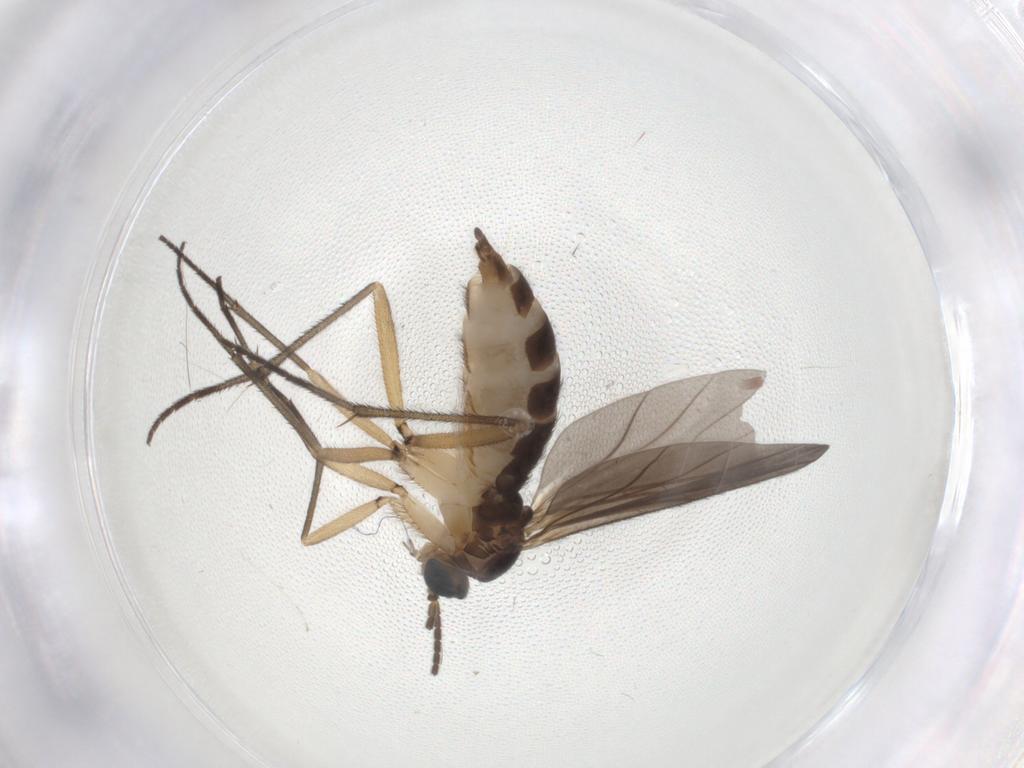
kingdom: Animalia
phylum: Arthropoda
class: Insecta
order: Diptera
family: Sciaridae
